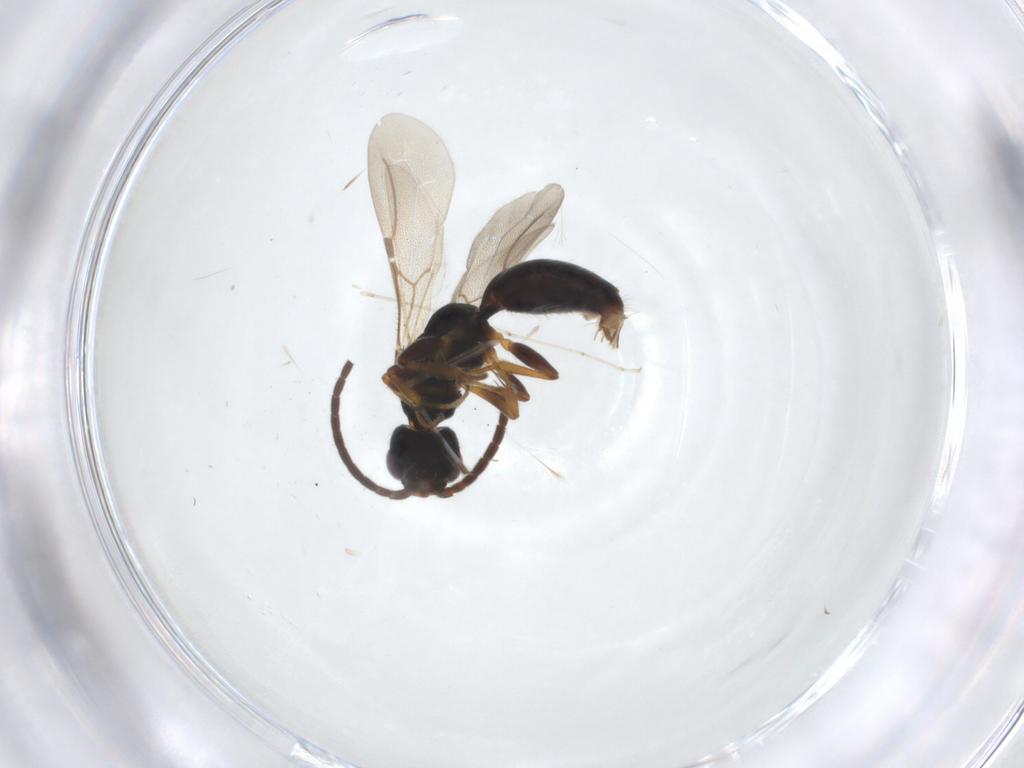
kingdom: Animalia
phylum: Arthropoda
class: Insecta
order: Hymenoptera
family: Bethylidae
